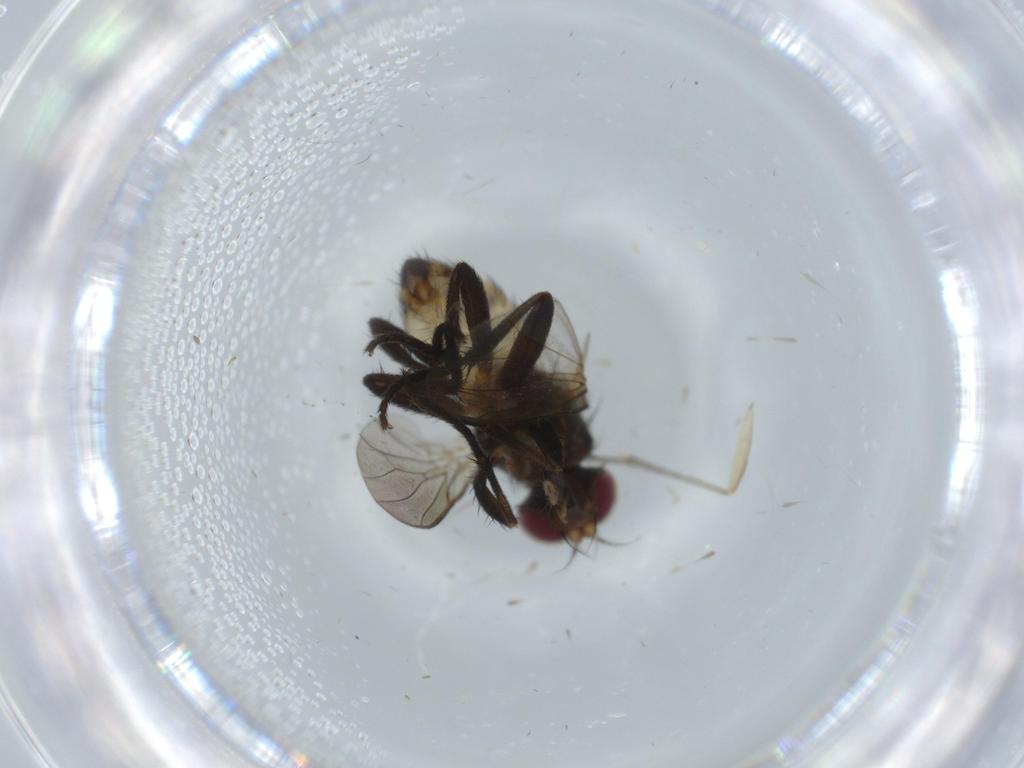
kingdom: Animalia
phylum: Arthropoda
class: Insecta
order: Diptera
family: Anthomyiidae
